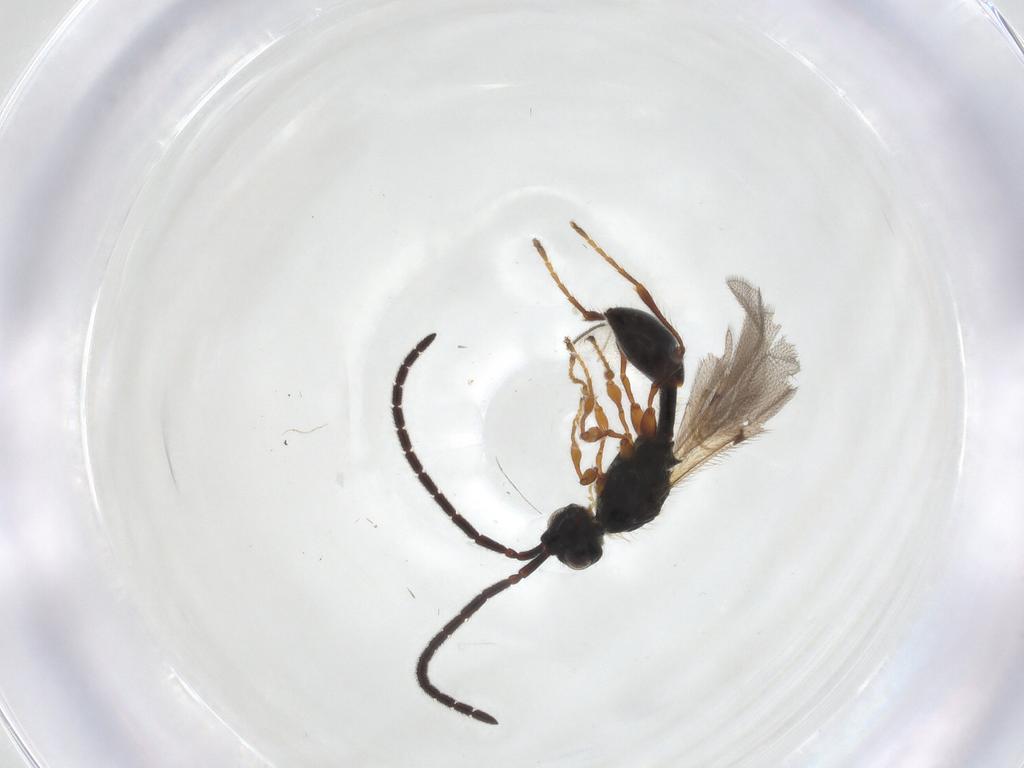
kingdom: Animalia
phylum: Arthropoda
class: Insecta
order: Hymenoptera
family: Diapriidae
